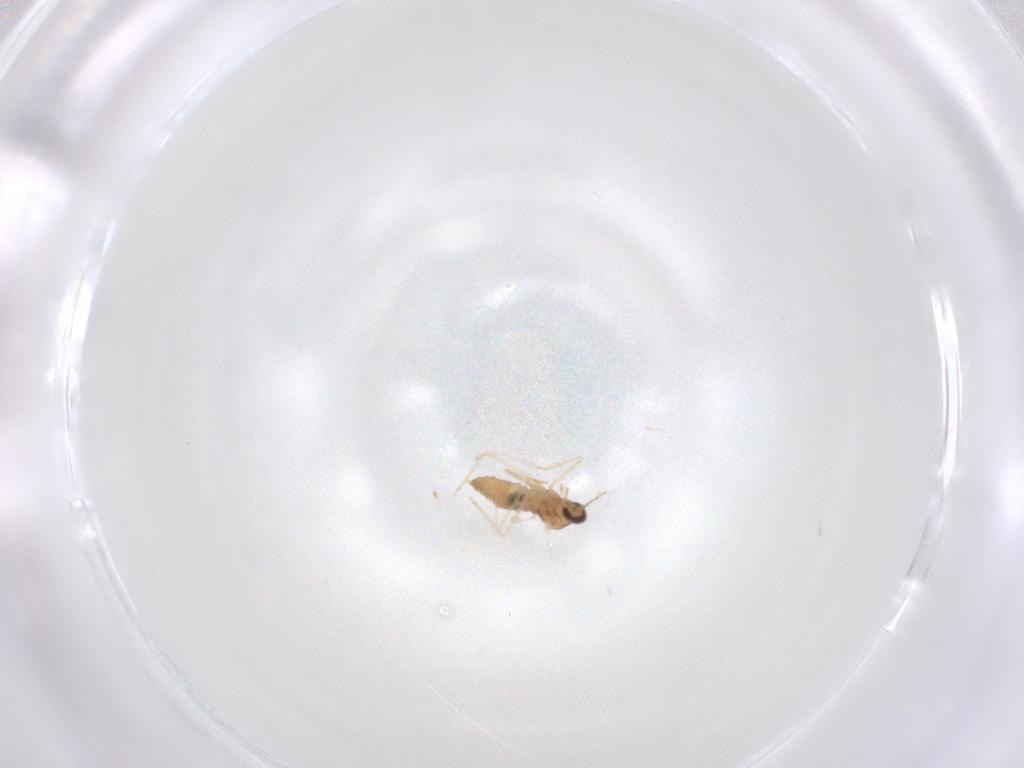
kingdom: Animalia
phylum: Arthropoda
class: Insecta
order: Diptera
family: Cecidomyiidae
